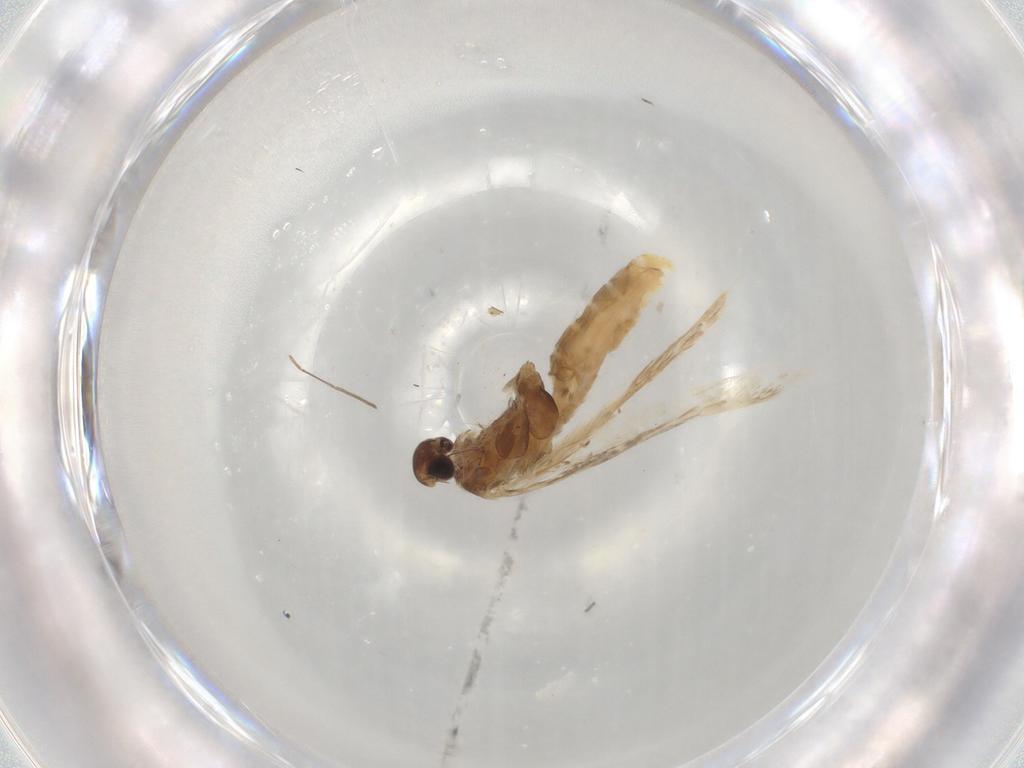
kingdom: Animalia
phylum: Arthropoda
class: Insecta
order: Lepidoptera
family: Gelechiidae
